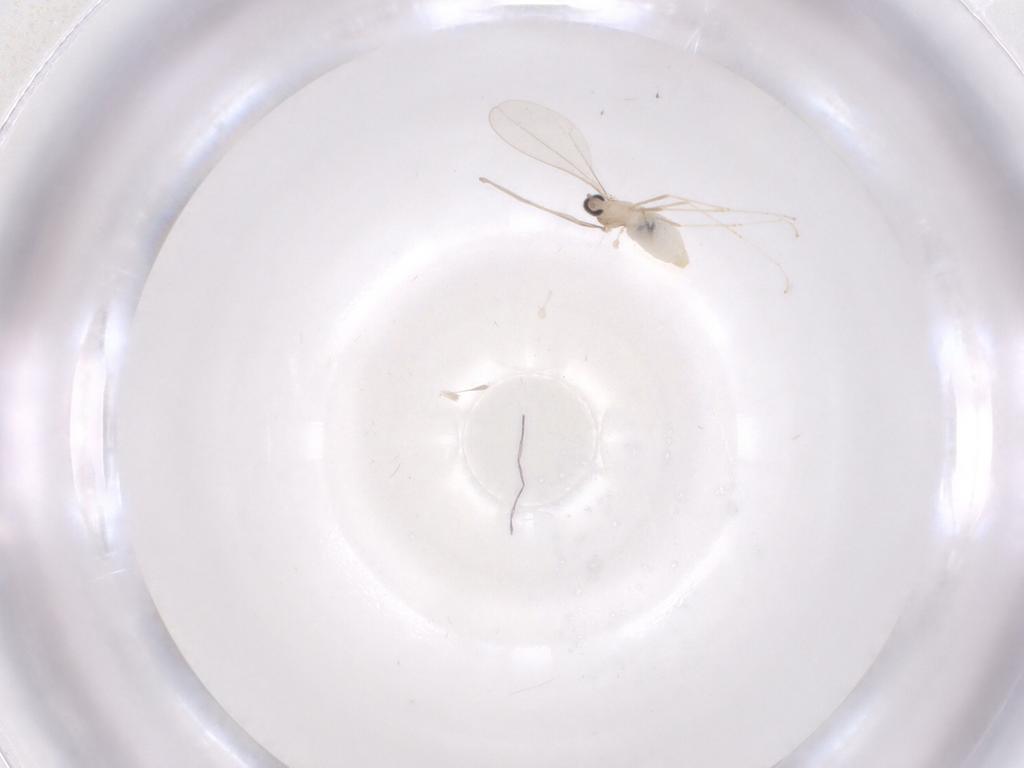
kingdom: Animalia
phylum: Arthropoda
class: Insecta
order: Diptera
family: Cecidomyiidae
